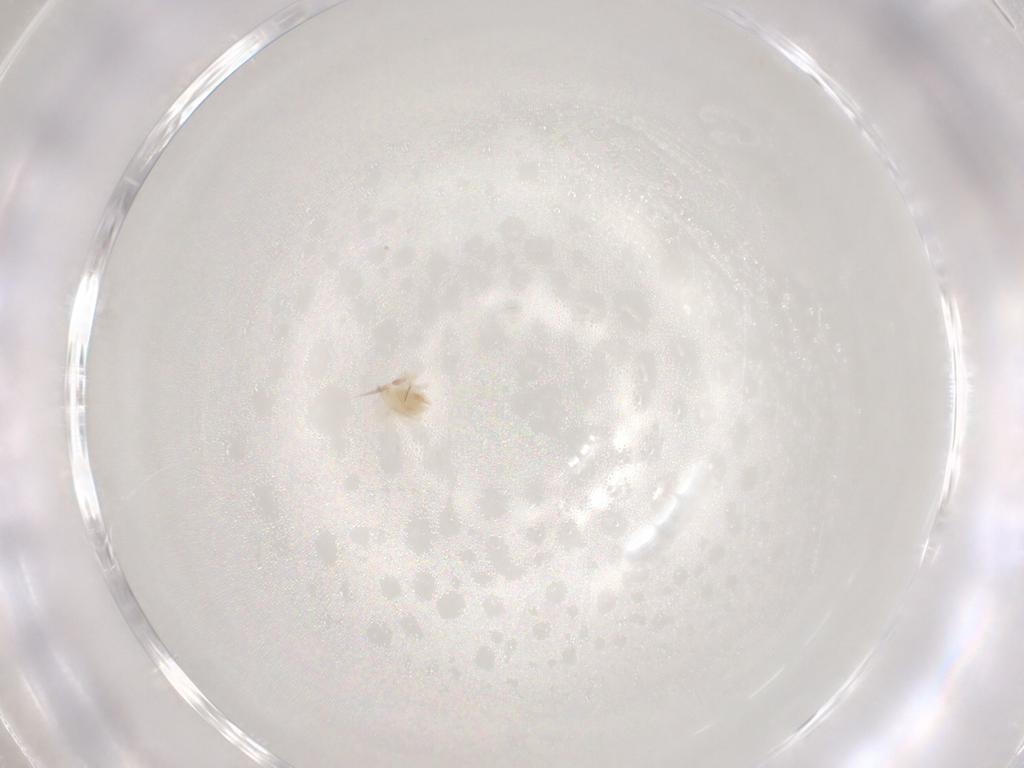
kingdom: Animalia
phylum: Arthropoda
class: Arachnida
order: Trombidiformes
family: Anystidae
